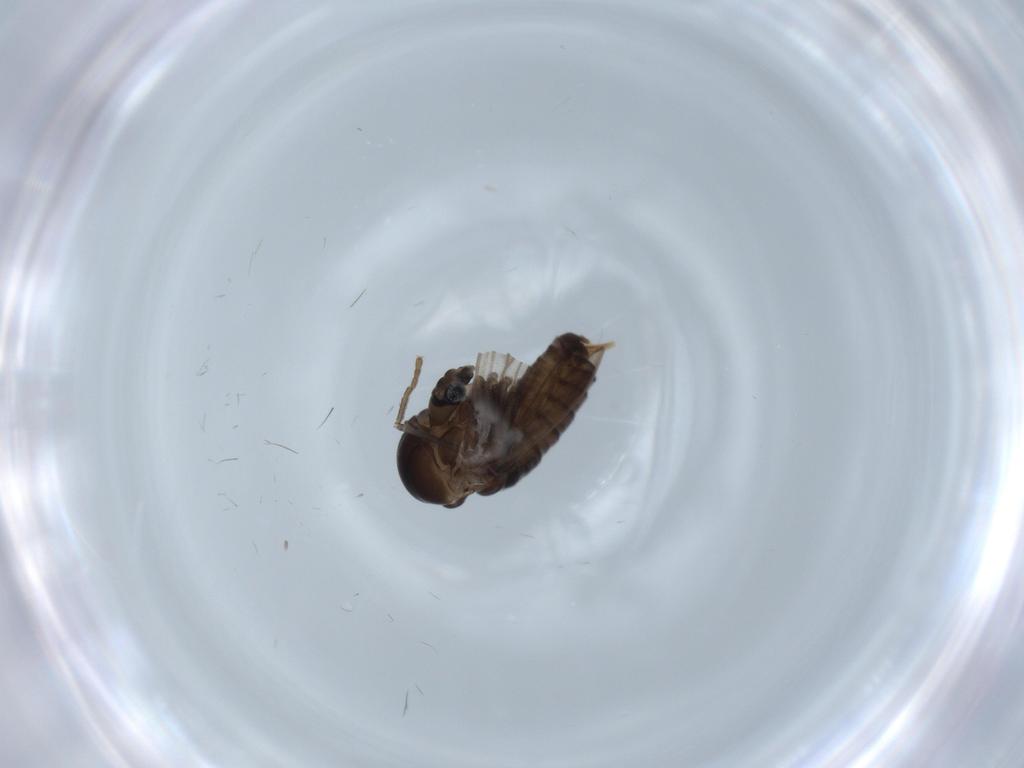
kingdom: Animalia
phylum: Arthropoda
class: Insecta
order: Diptera
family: Psychodidae
